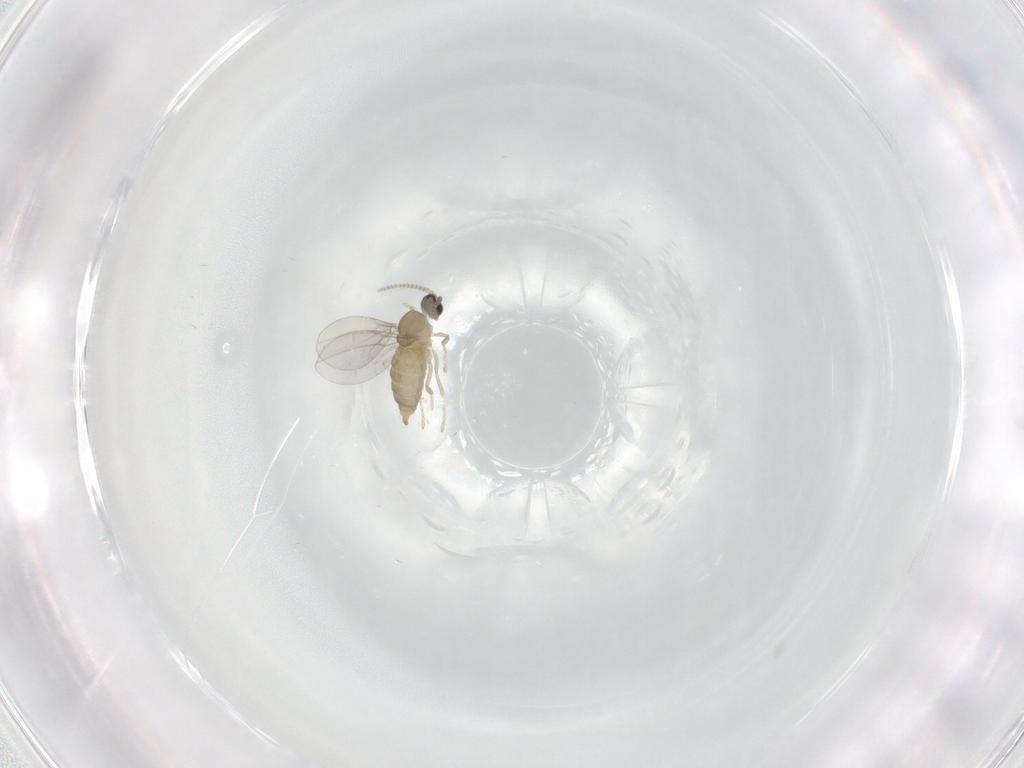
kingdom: Animalia
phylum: Arthropoda
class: Insecta
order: Diptera
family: Cecidomyiidae
